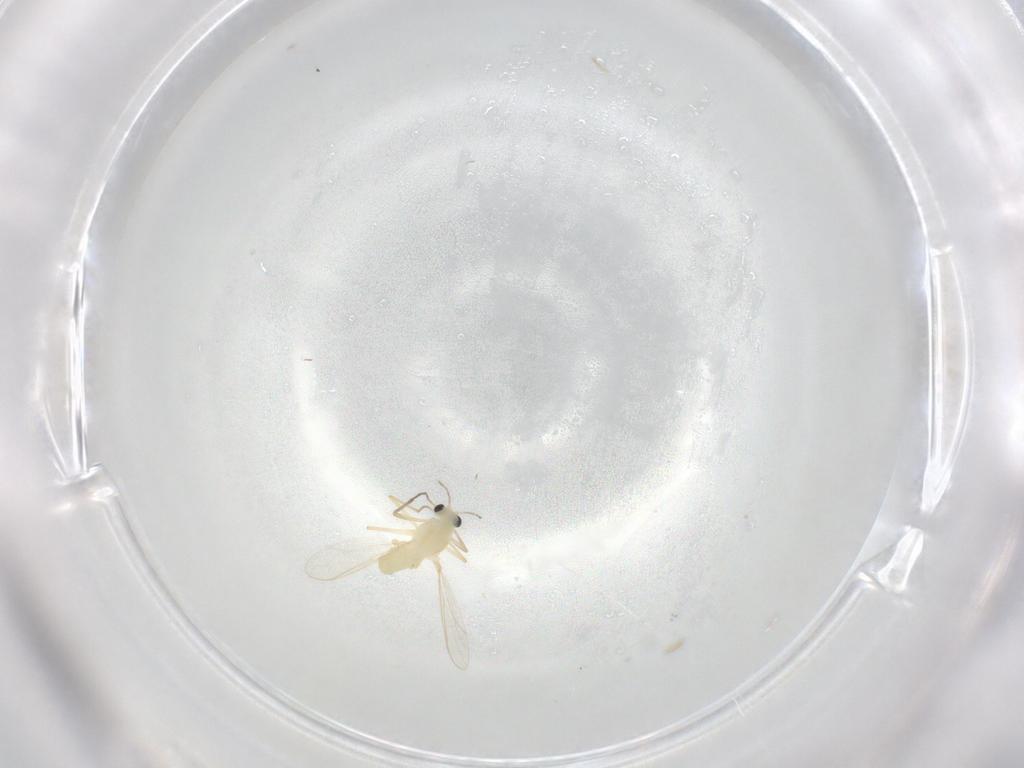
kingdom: Animalia
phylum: Arthropoda
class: Insecta
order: Diptera
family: Chironomidae
